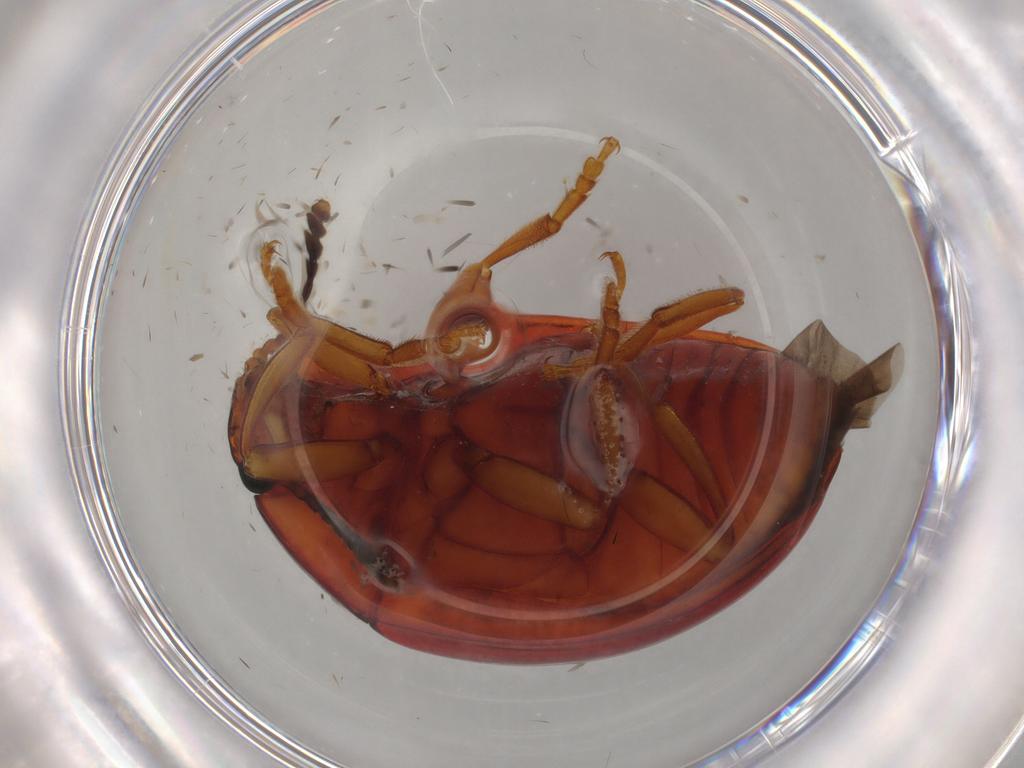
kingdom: Animalia
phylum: Arthropoda
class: Insecta
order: Coleoptera
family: Erotylidae
